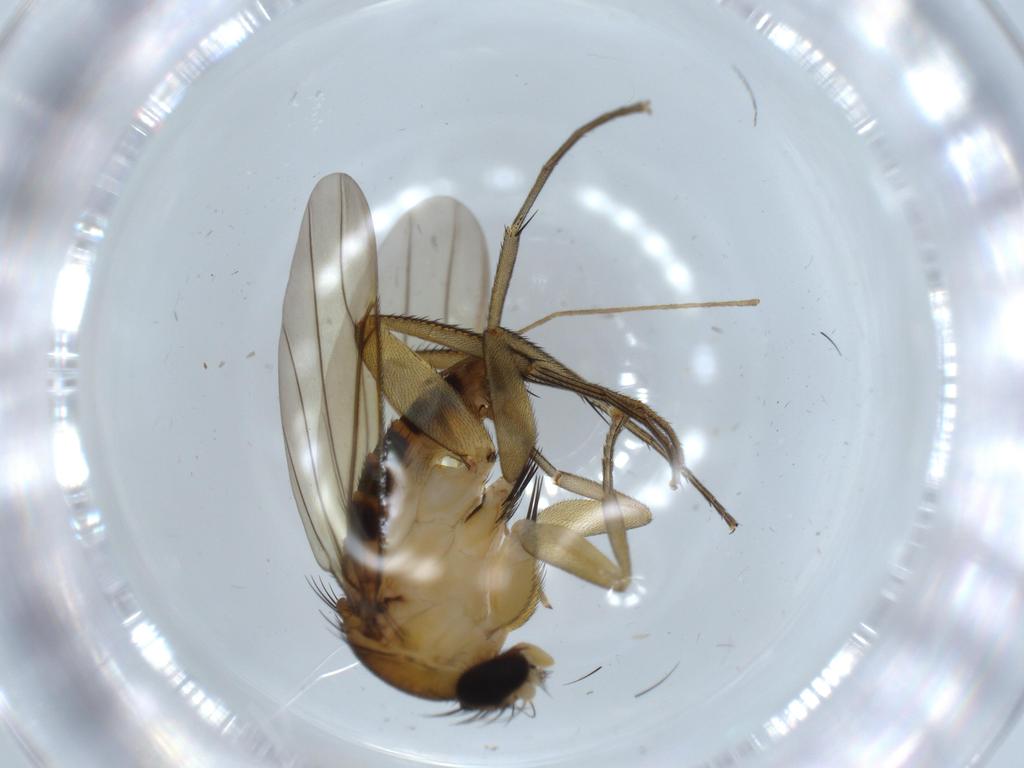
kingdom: Animalia
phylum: Arthropoda
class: Insecta
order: Diptera
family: Limoniidae
